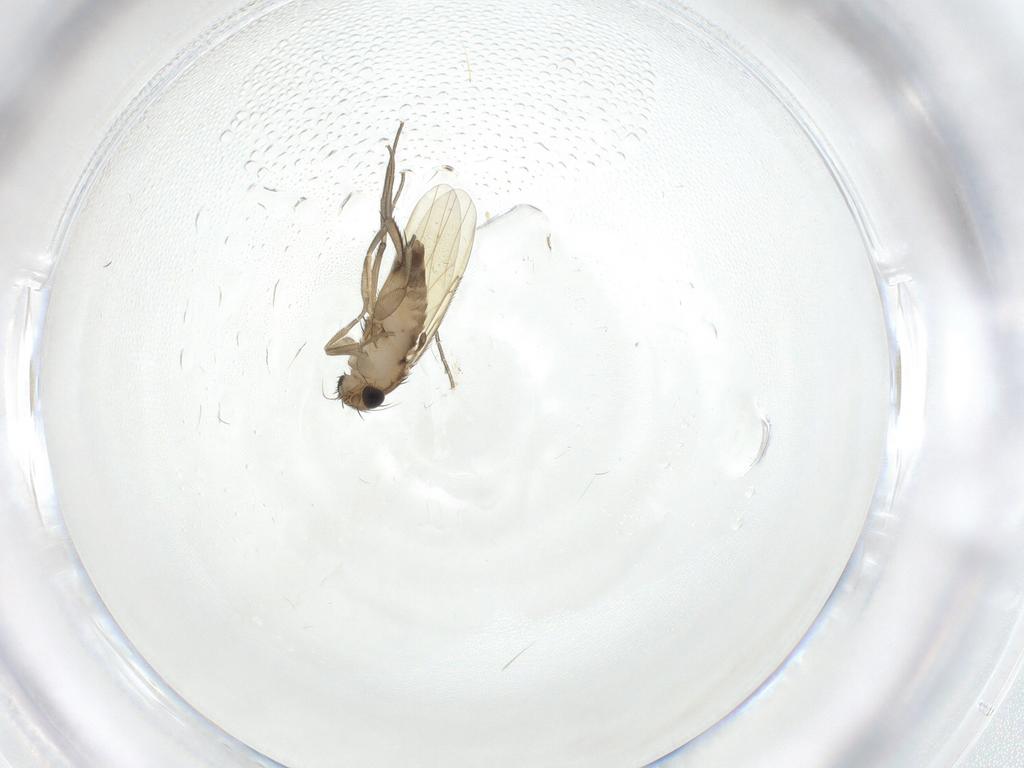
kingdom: Animalia
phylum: Arthropoda
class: Insecta
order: Diptera
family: Phoridae
